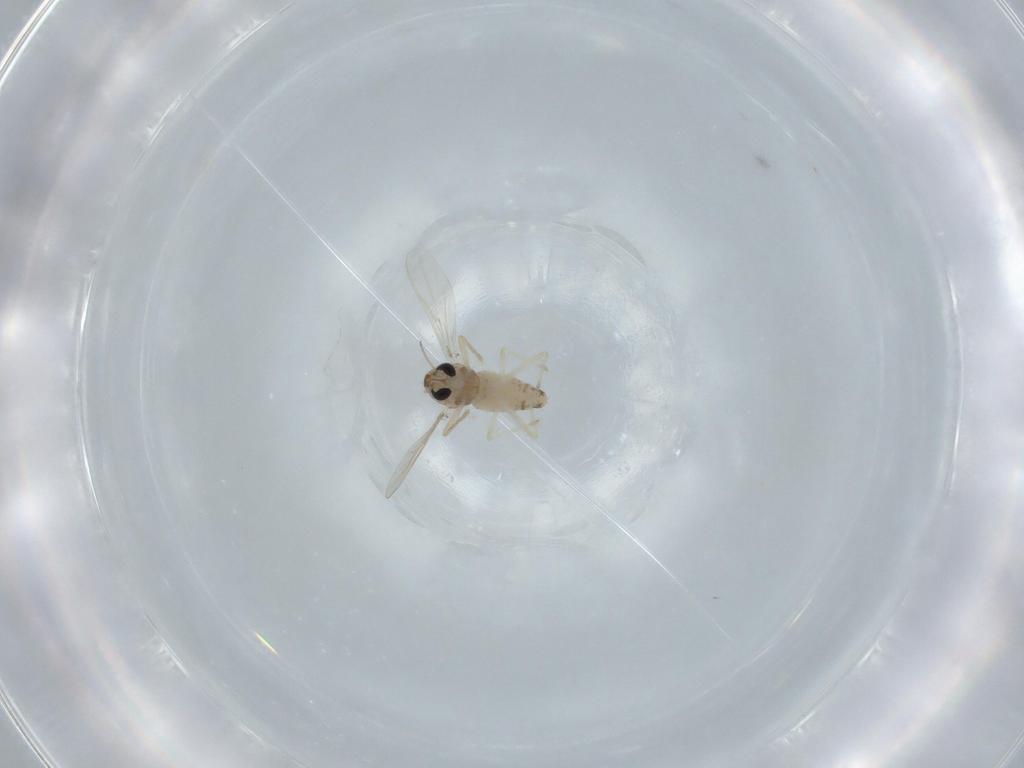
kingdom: Animalia
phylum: Arthropoda
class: Insecta
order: Diptera
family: Chironomidae
